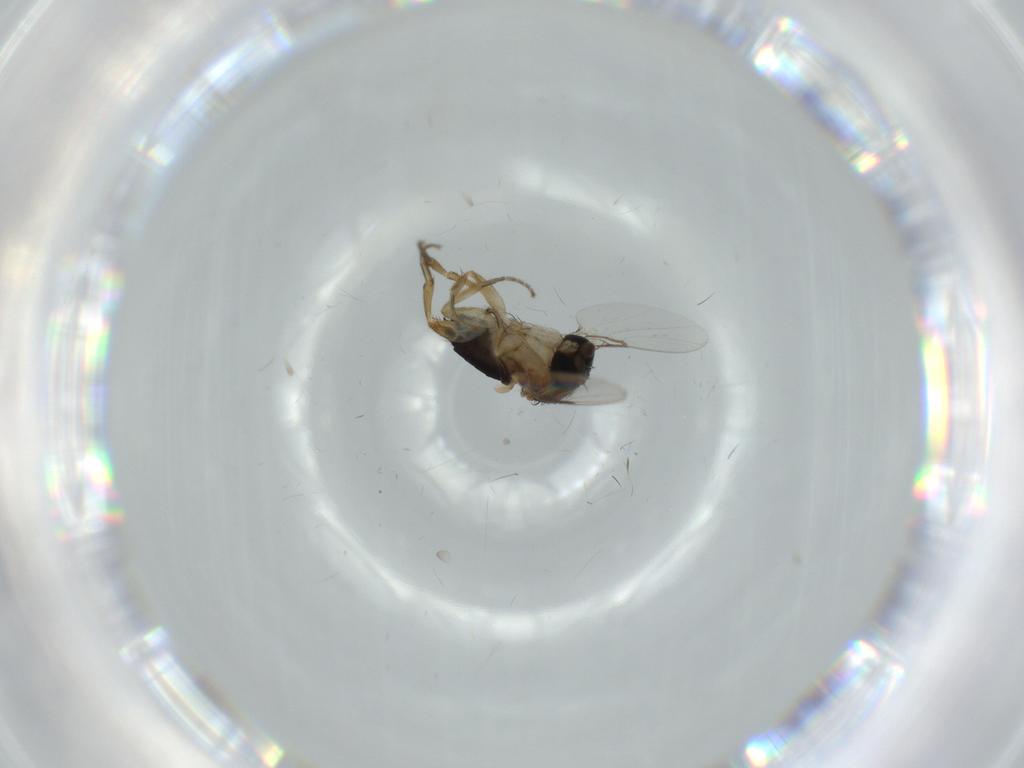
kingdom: Animalia
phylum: Arthropoda
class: Insecta
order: Diptera
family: Phoridae
